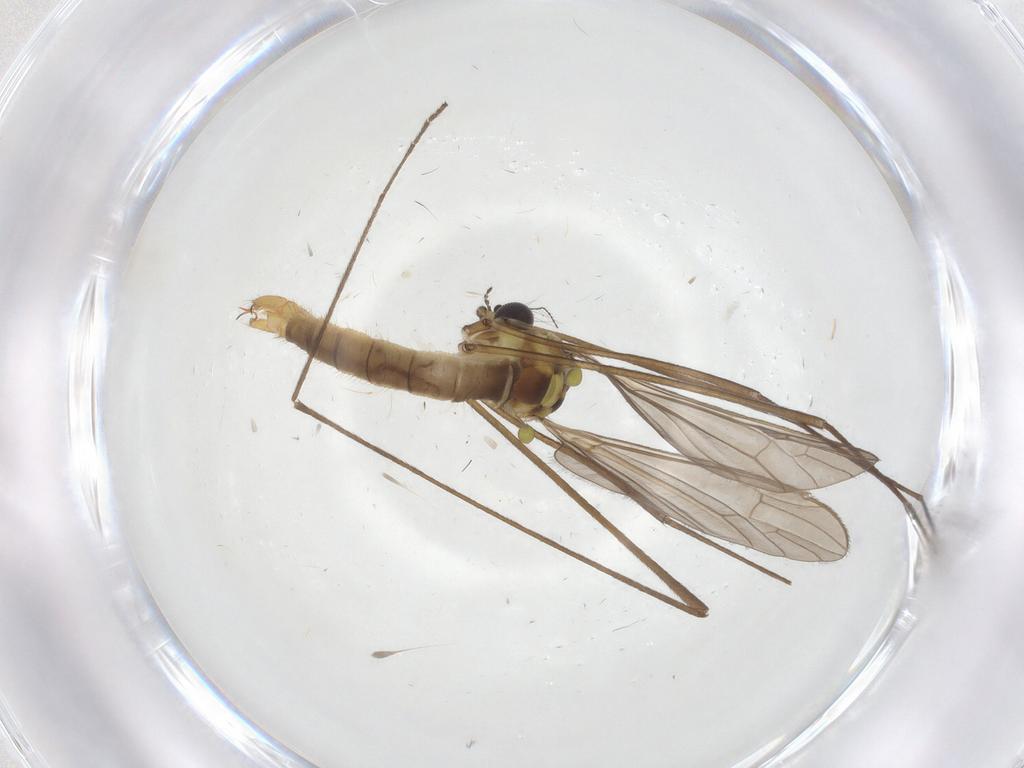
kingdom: Animalia
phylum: Arthropoda
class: Insecta
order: Diptera
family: Limoniidae
